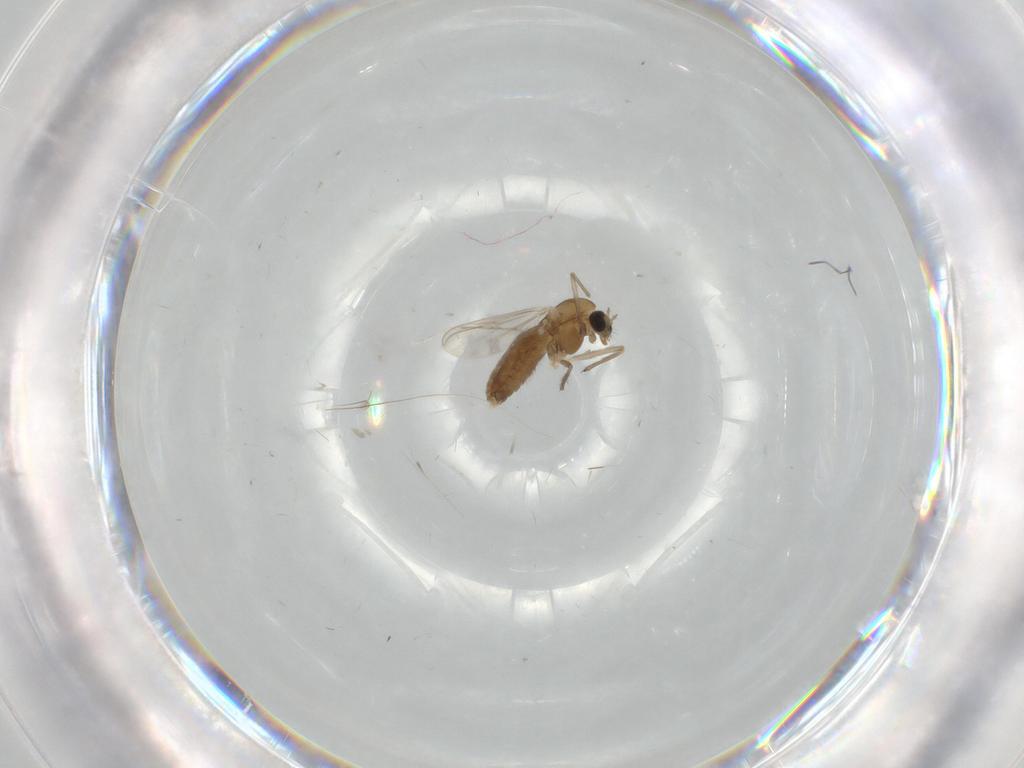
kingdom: Animalia
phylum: Arthropoda
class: Insecta
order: Diptera
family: Chironomidae
